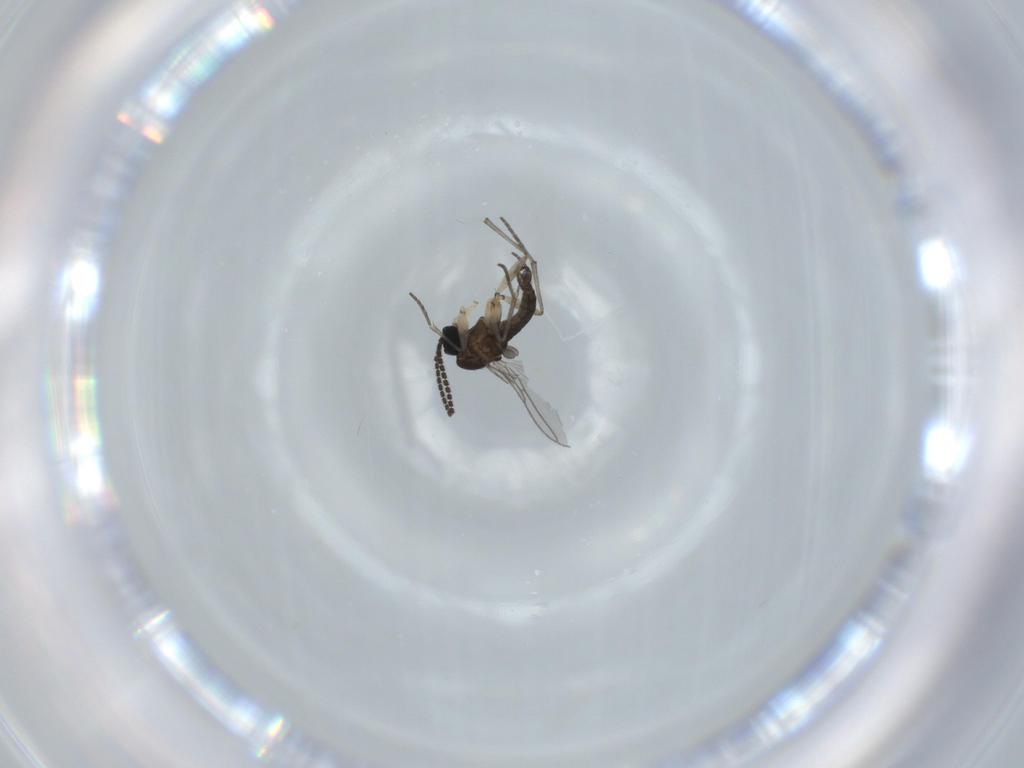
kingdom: Animalia
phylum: Arthropoda
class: Insecta
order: Diptera
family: Sciaridae
